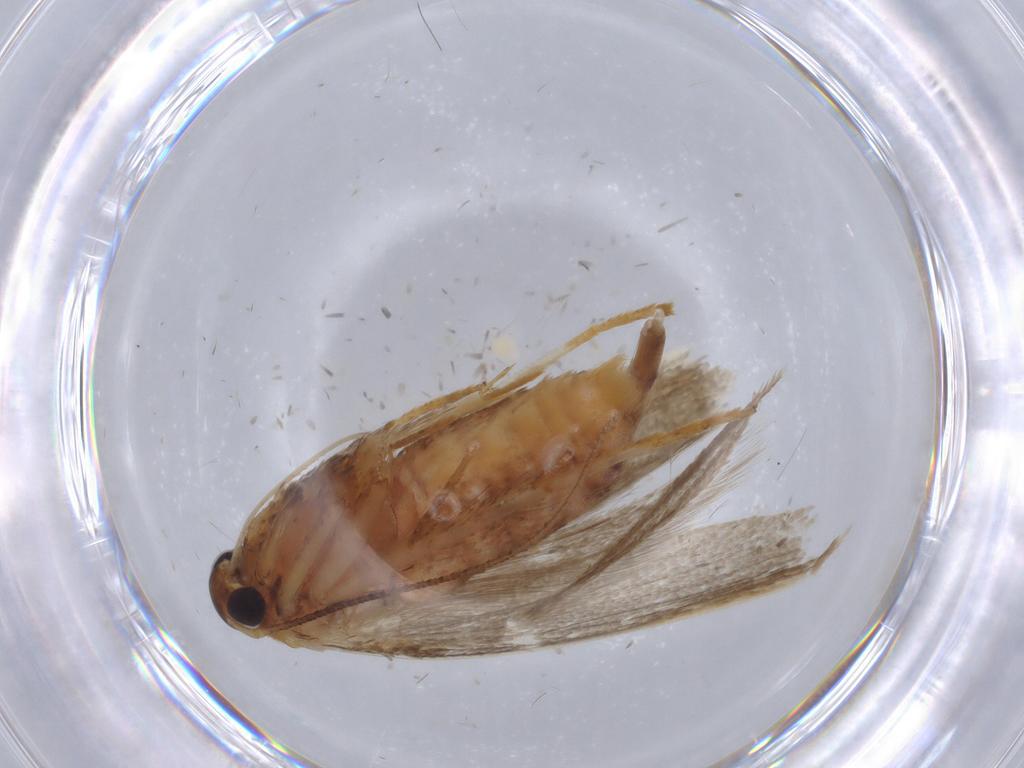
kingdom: Animalia
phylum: Arthropoda
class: Insecta
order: Lepidoptera
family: Blastobasidae
